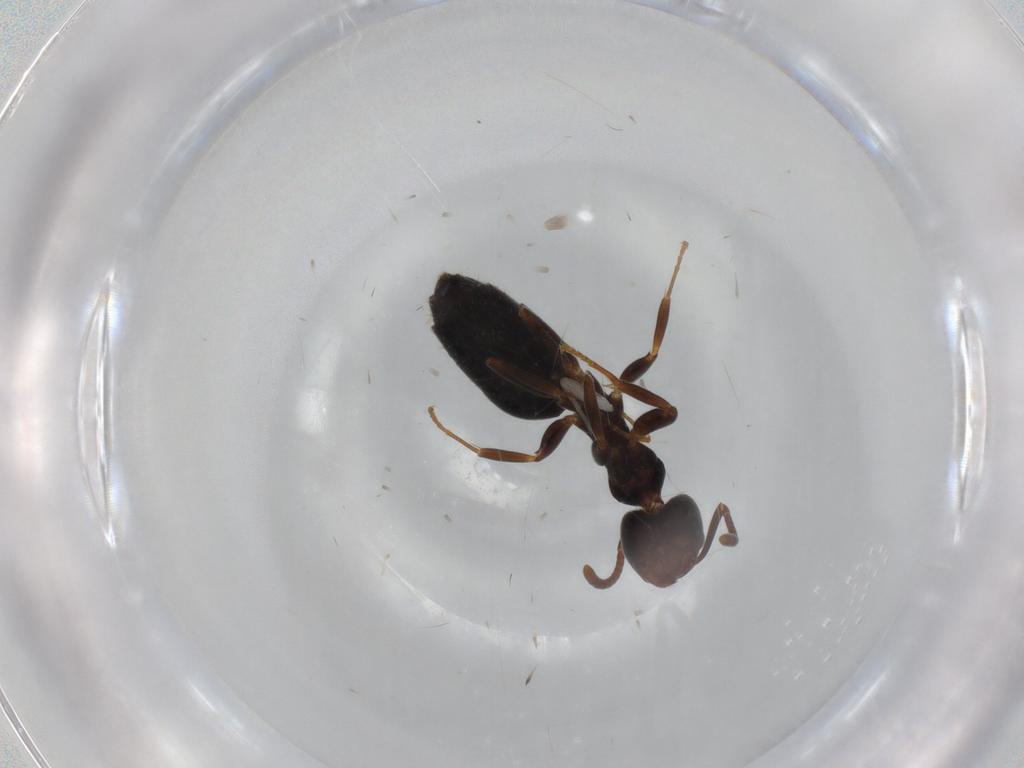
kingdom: Animalia
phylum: Arthropoda
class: Insecta
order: Hymenoptera
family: Formicidae
